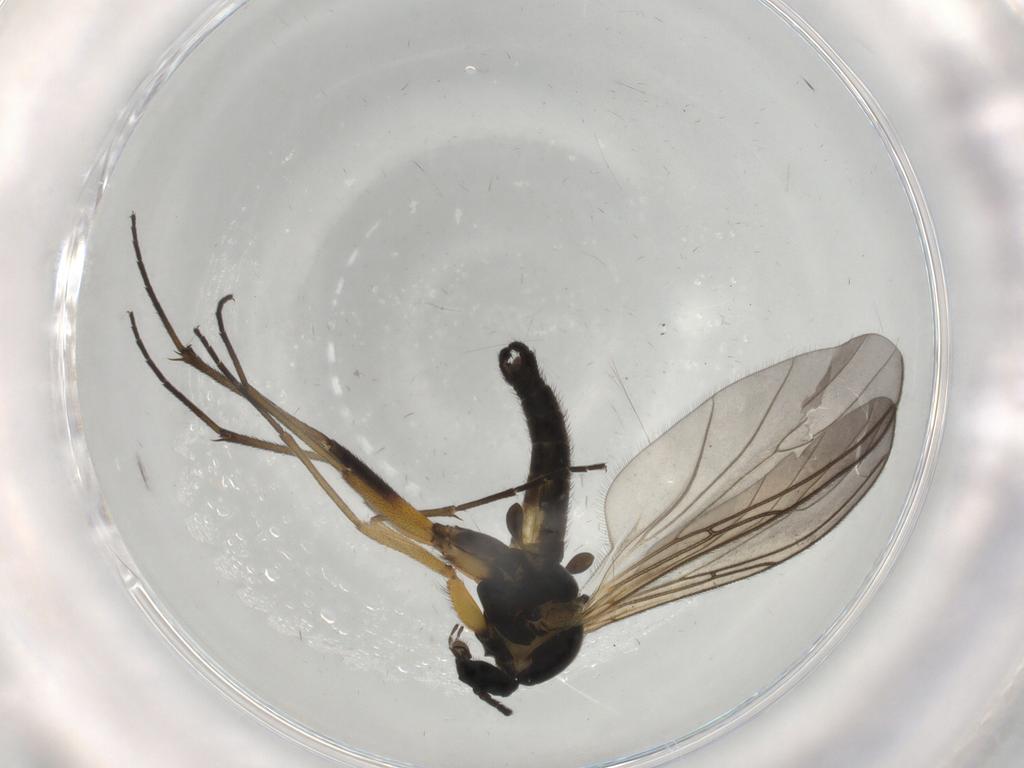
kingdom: Animalia
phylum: Arthropoda
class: Insecta
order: Diptera
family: Sciaridae
